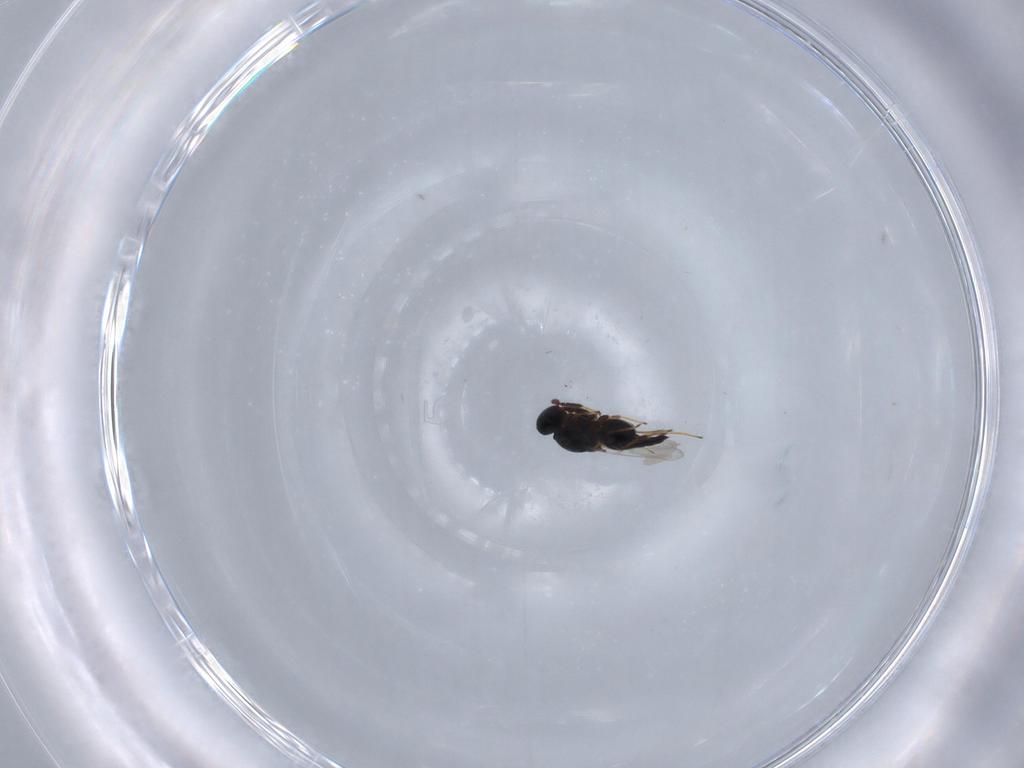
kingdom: Animalia
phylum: Arthropoda
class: Insecta
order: Hymenoptera
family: Platygastridae
